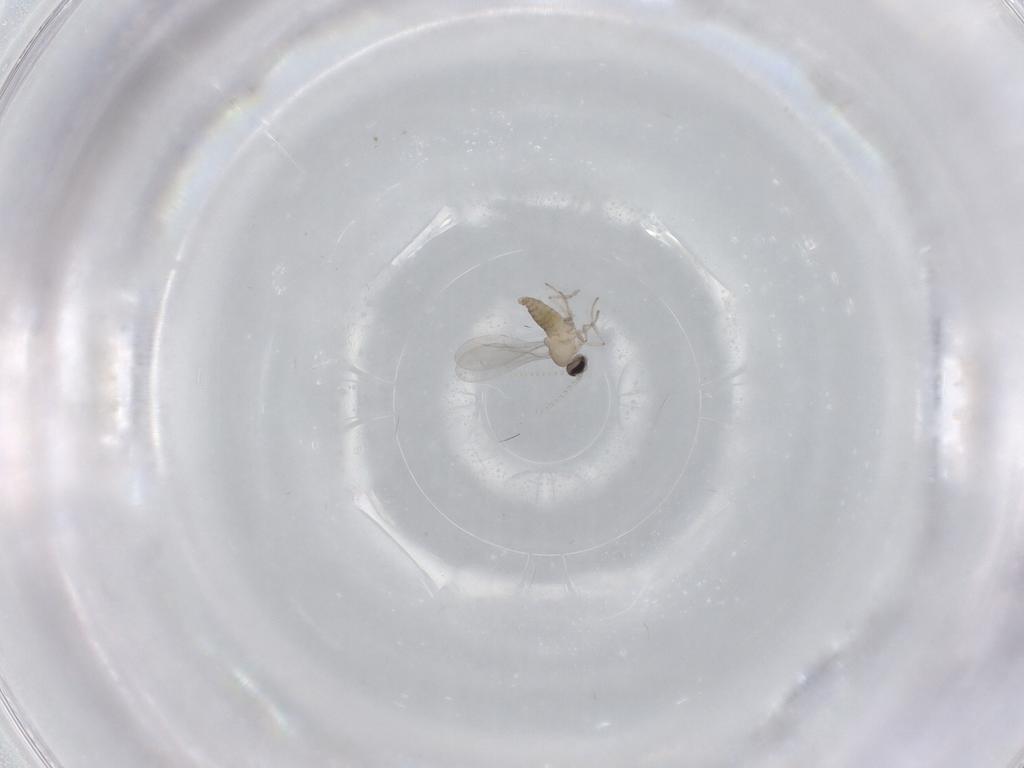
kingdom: Animalia
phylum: Arthropoda
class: Insecta
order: Diptera
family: Cecidomyiidae
